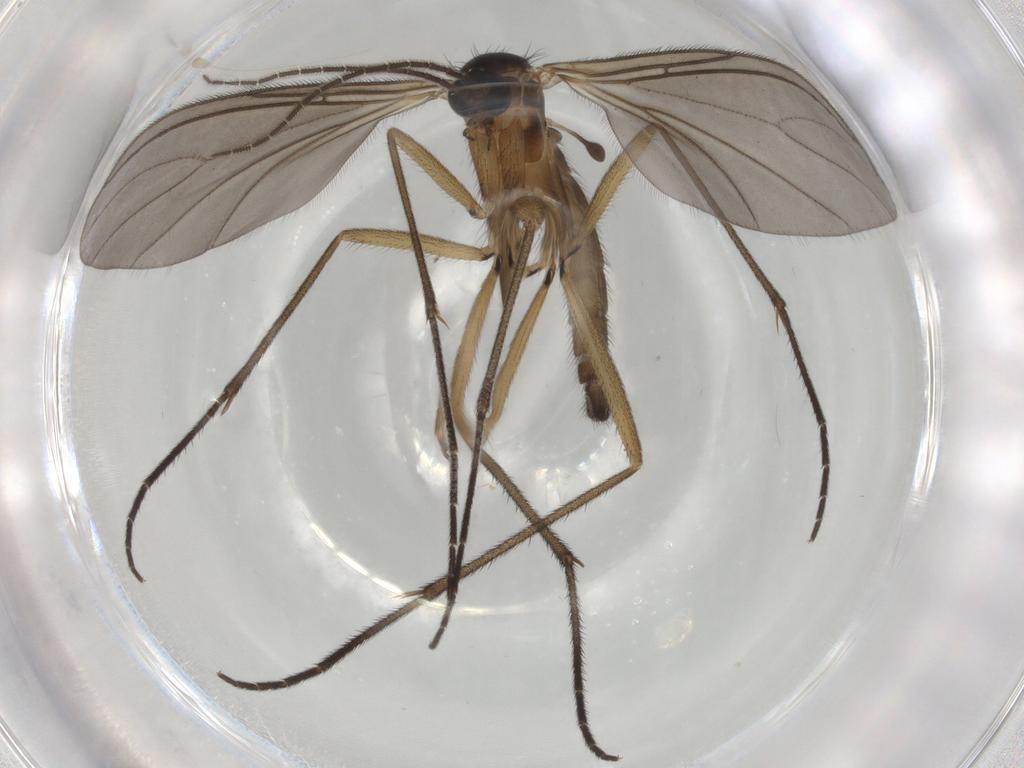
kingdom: Animalia
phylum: Arthropoda
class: Insecta
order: Diptera
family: Sciaridae
